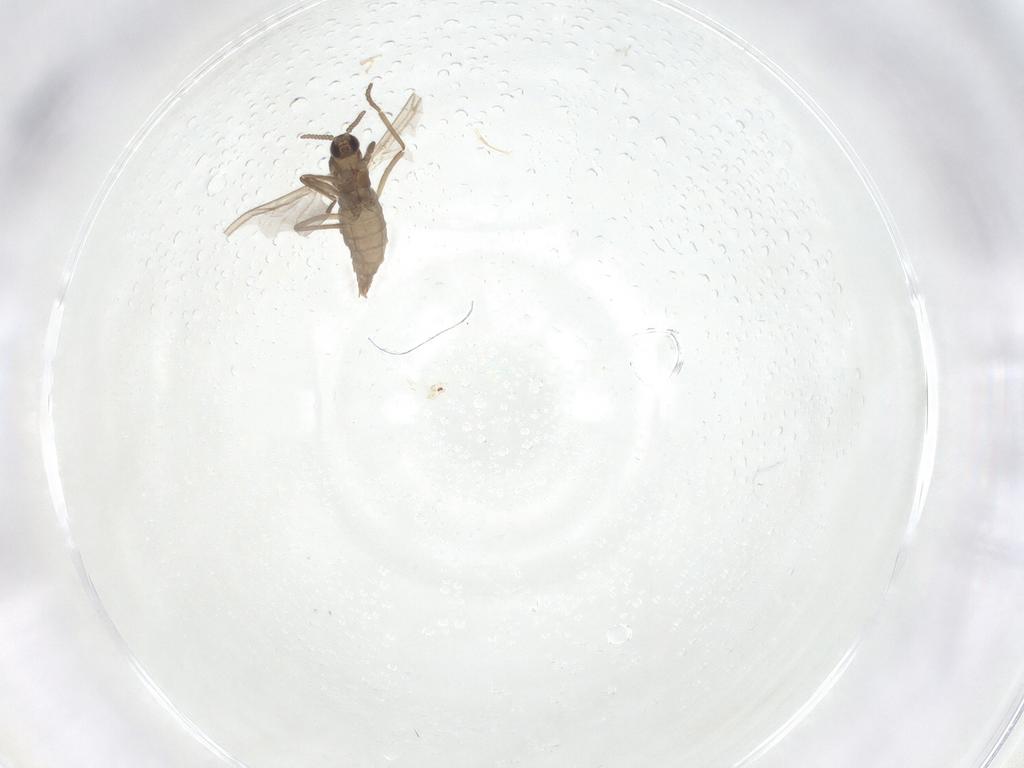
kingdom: Animalia
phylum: Arthropoda
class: Insecta
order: Diptera
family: Cecidomyiidae
